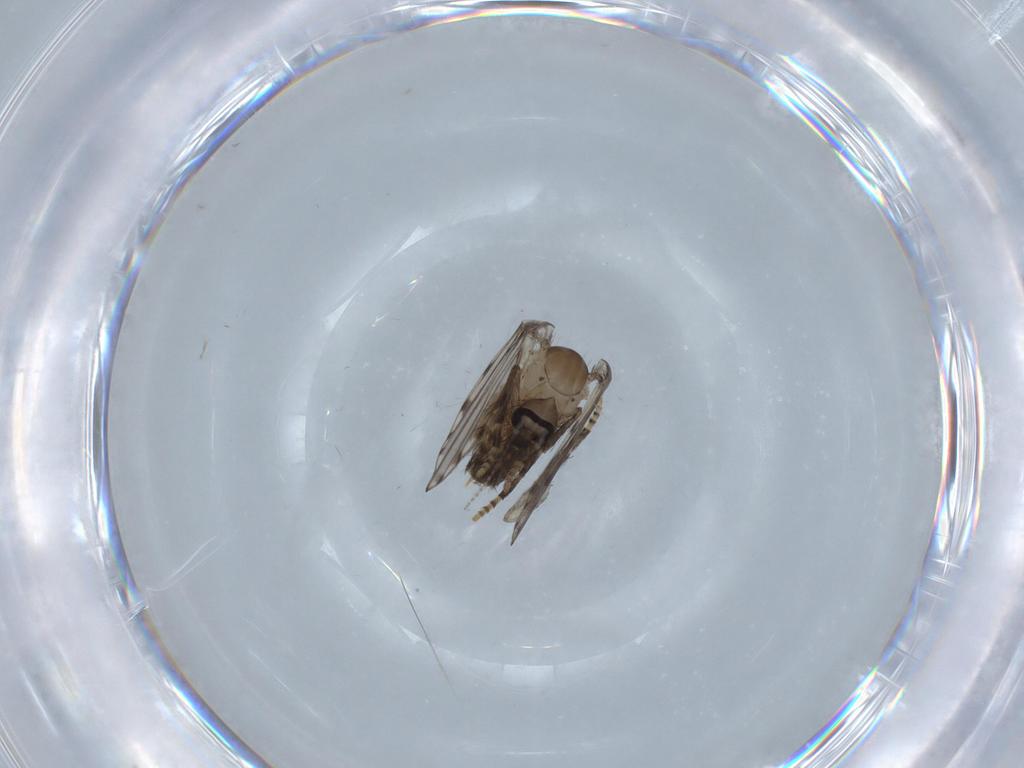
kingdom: Animalia
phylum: Arthropoda
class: Insecta
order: Diptera
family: Psychodidae
